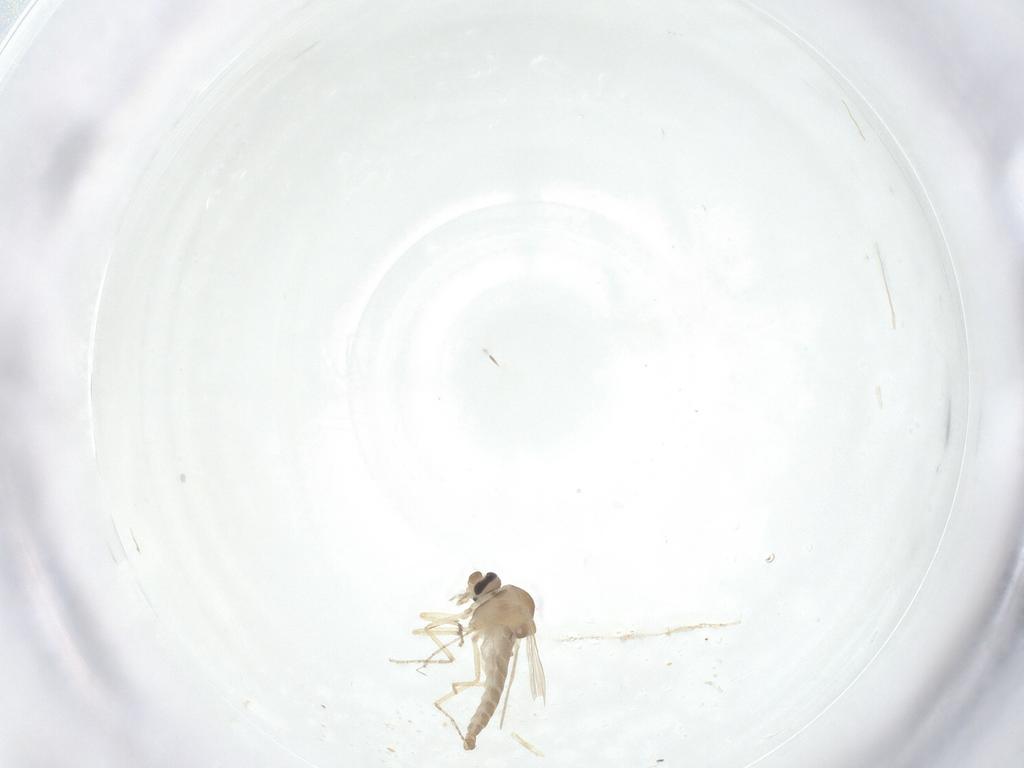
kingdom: Animalia
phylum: Arthropoda
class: Insecta
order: Diptera
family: Ceratopogonidae
